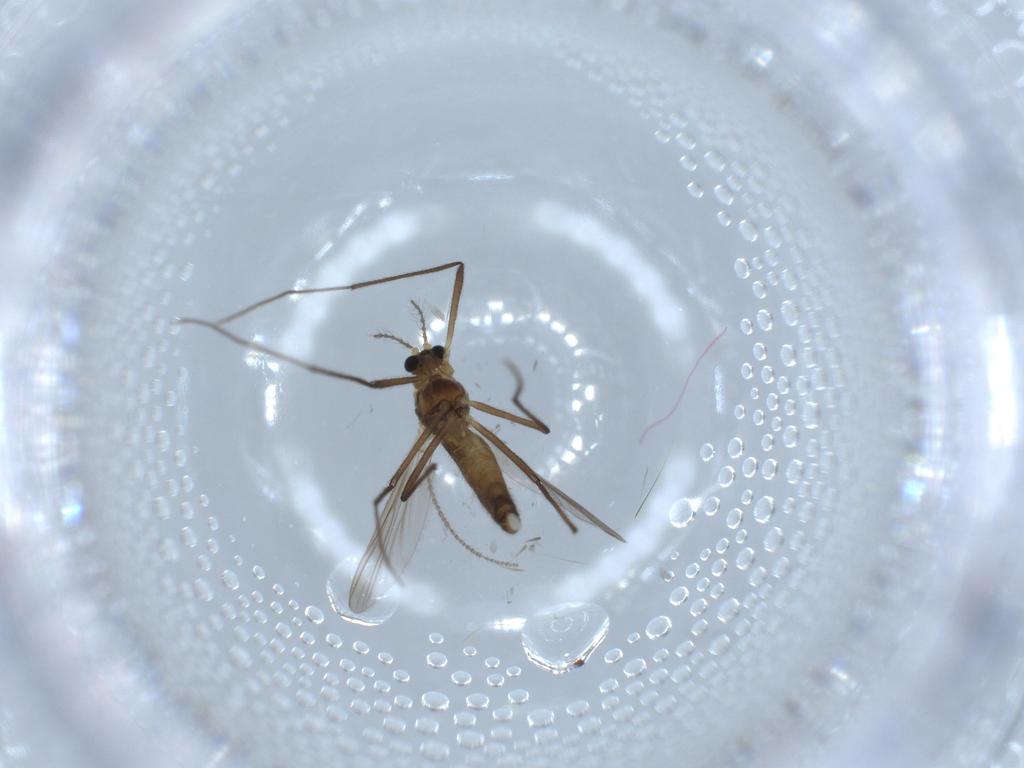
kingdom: Animalia
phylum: Arthropoda
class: Insecta
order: Diptera
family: Chironomidae
